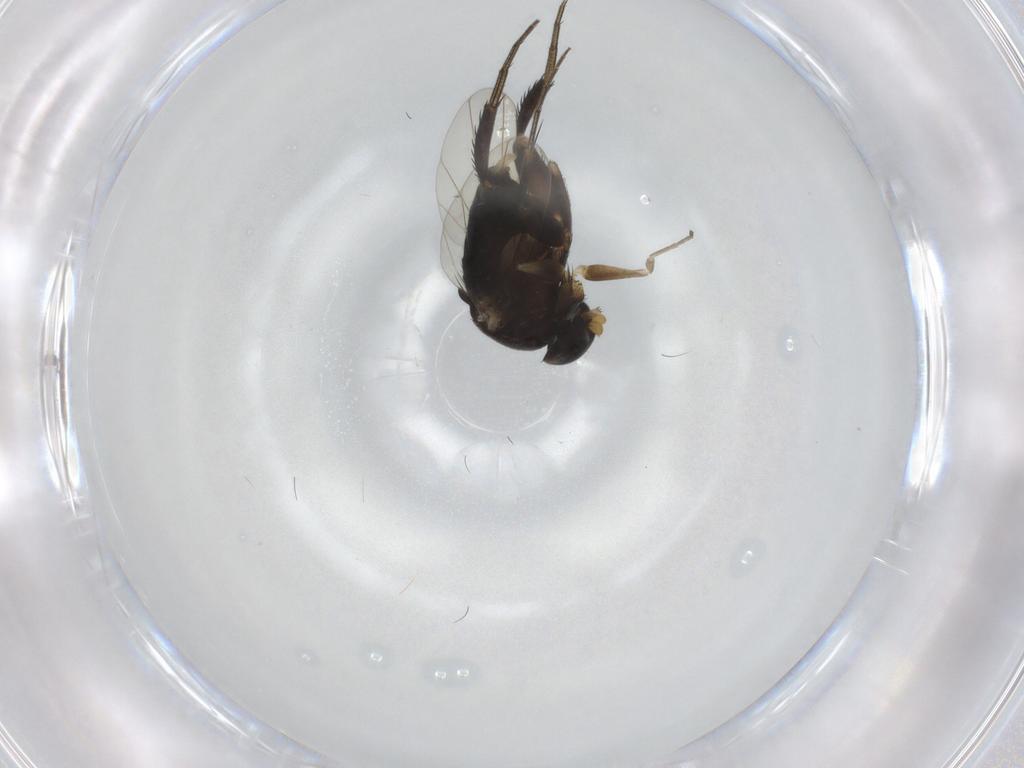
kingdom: Animalia
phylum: Arthropoda
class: Insecta
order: Diptera
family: Phoridae
